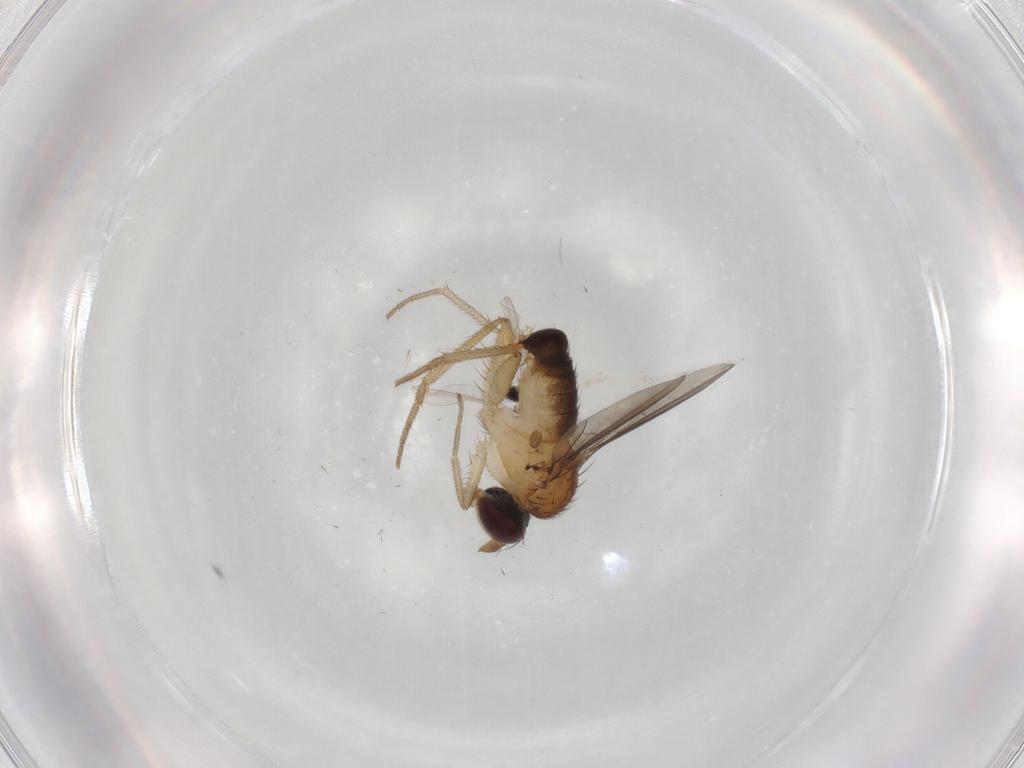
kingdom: Animalia
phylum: Arthropoda
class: Insecta
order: Diptera
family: Dolichopodidae
